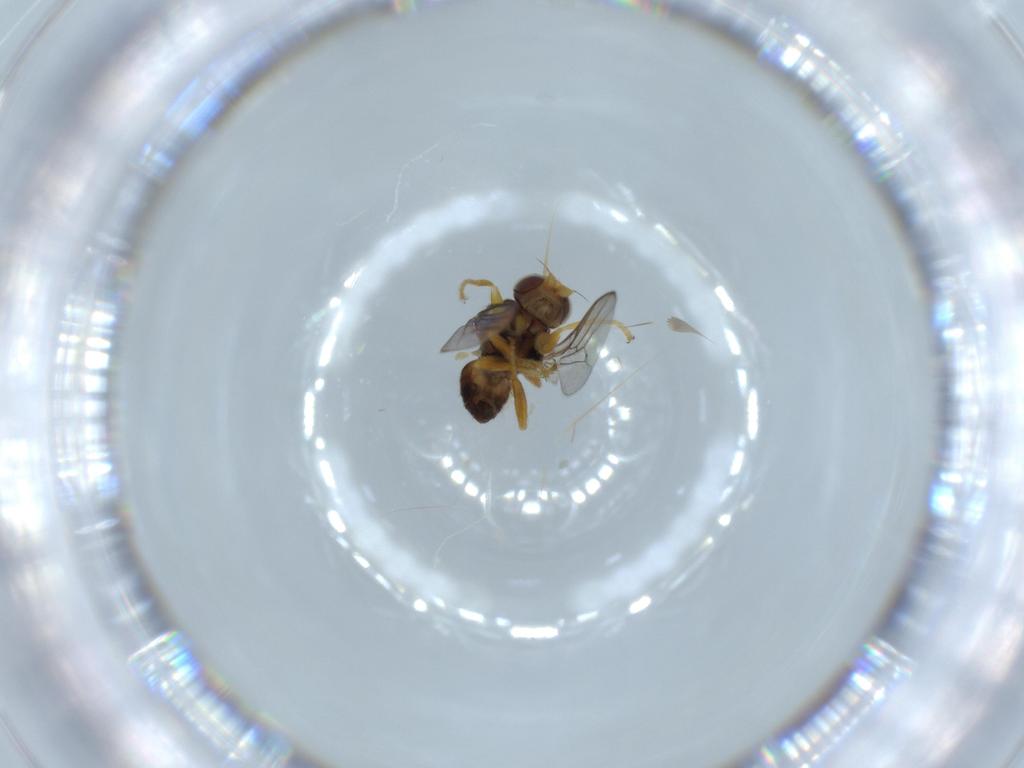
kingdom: Animalia
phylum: Arthropoda
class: Insecta
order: Diptera
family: Chloropidae
